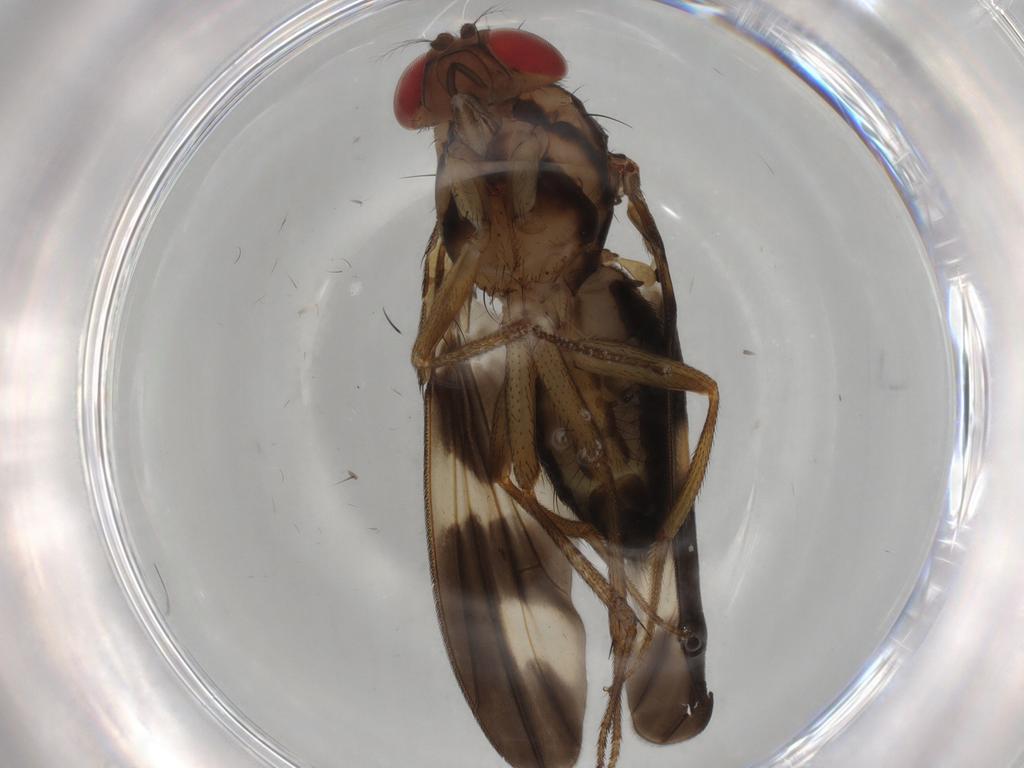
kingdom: Animalia
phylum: Arthropoda
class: Insecta
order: Diptera
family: Drosophilidae
